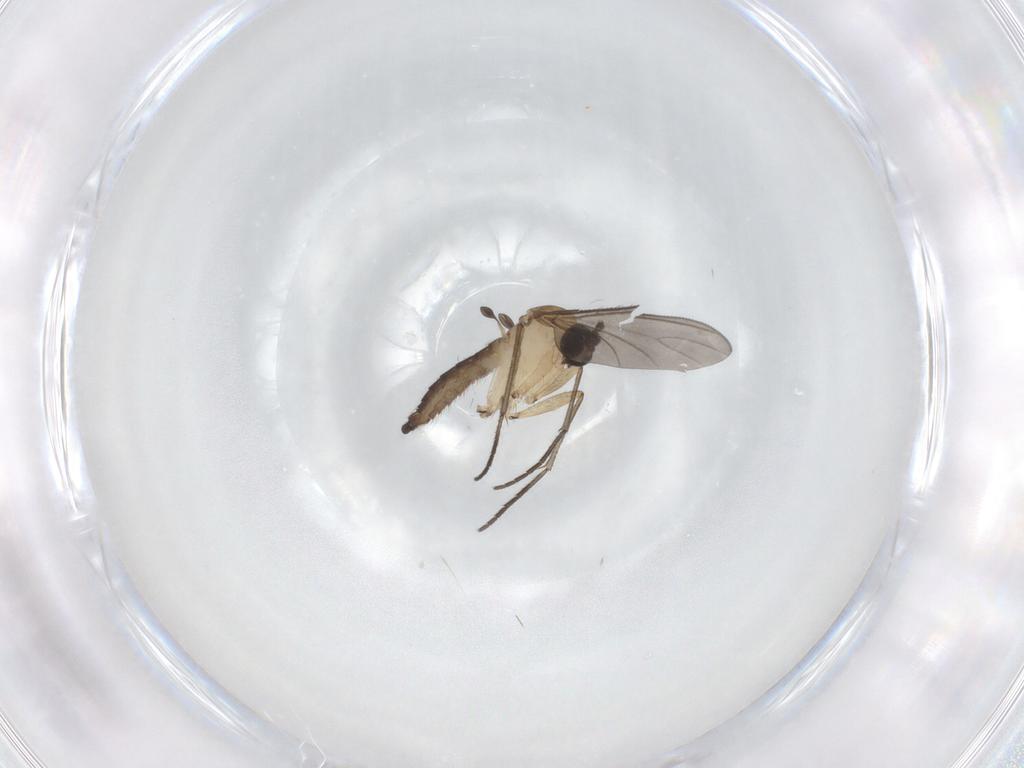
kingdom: Animalia
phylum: Arthropoda
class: Insecta
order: Diptera
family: Sciaridae
